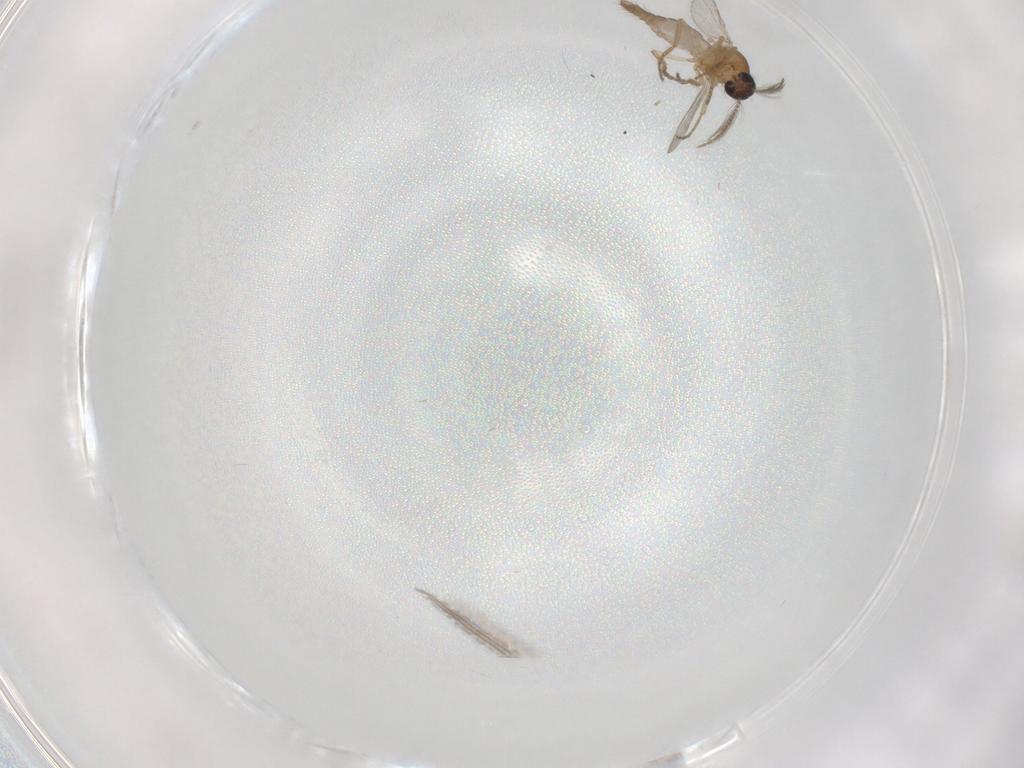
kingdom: Animalia
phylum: Arthropoda
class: Insecta
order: Diptera
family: Ceratopogonidae
